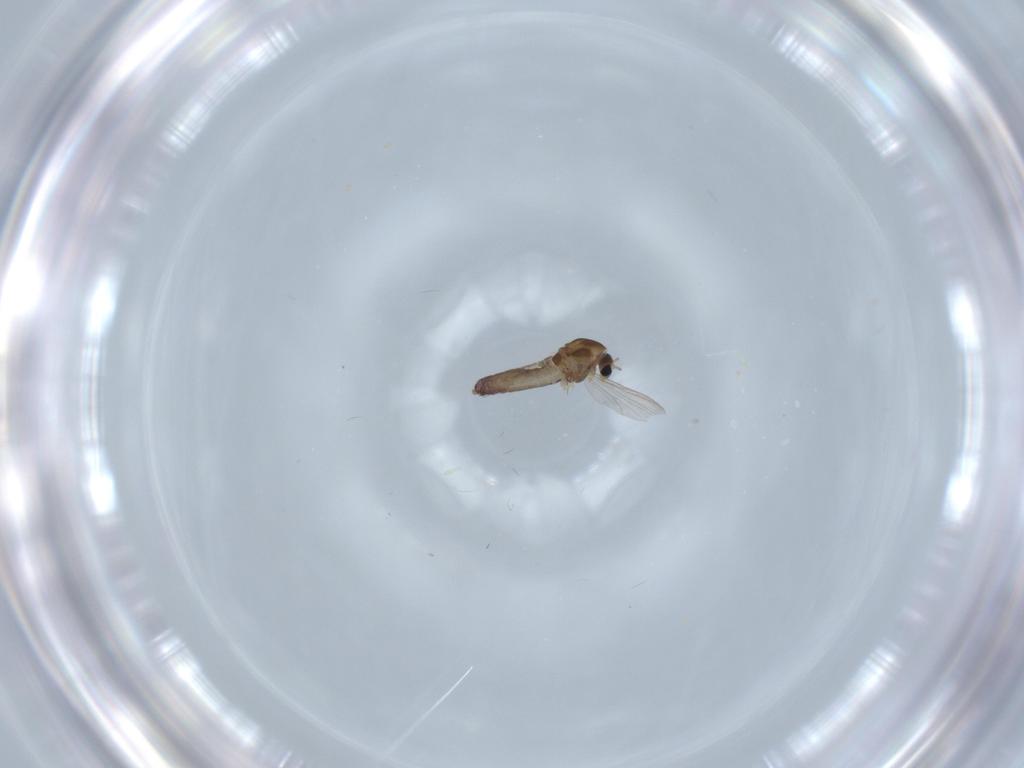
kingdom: Animalia
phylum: Arthropoda
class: Insecta
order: Diptera
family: Chironomidae
